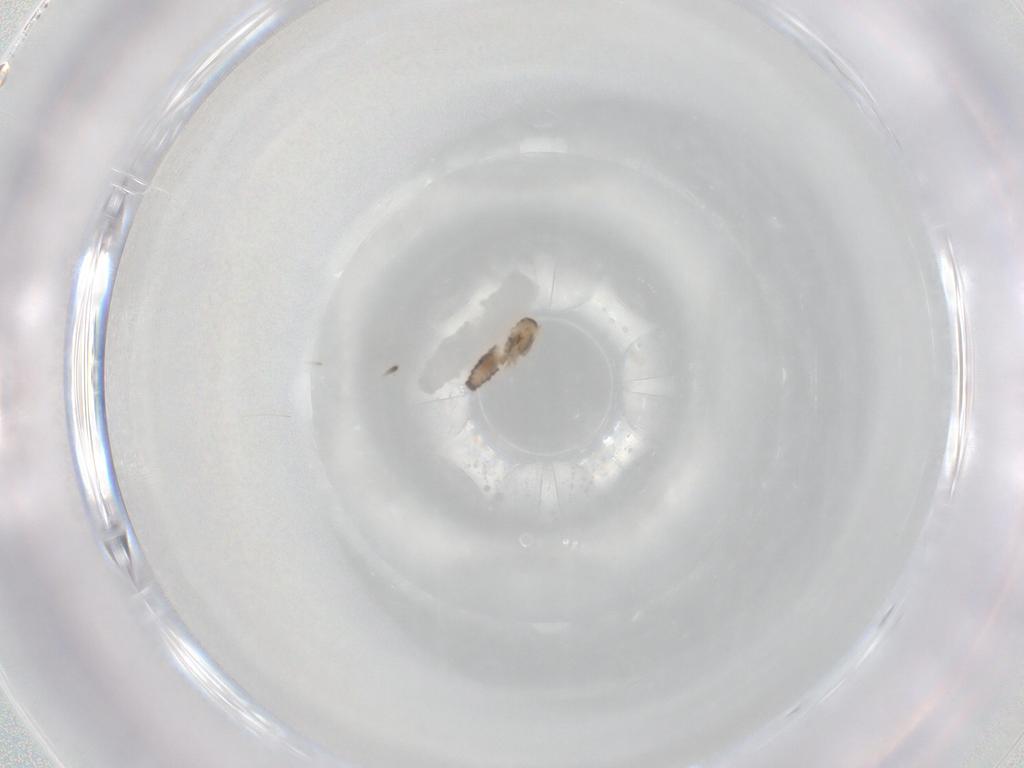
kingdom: Animalia
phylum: Arthropoda
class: Insecta
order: Diptera
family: Cecidomyiidae
